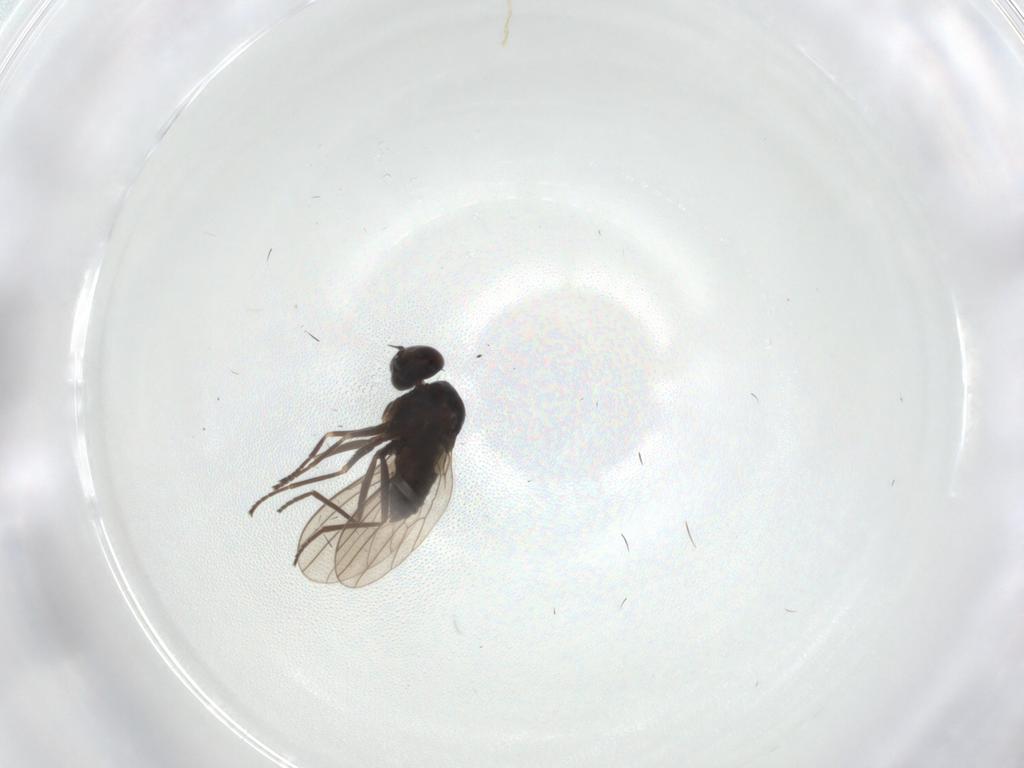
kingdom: Animalia
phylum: Arthropoda
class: Insecta
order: Diptera
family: Dolichopodidae
